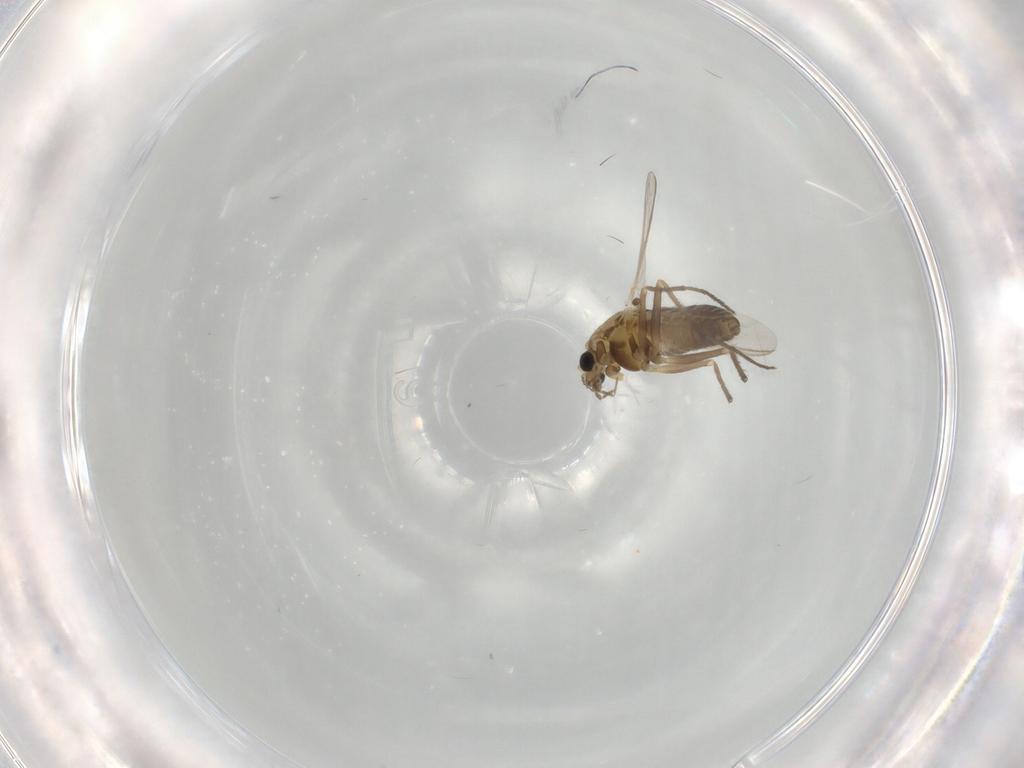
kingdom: Animalia
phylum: Arthropoda
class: Insecta
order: Diptera
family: Chironomidae
